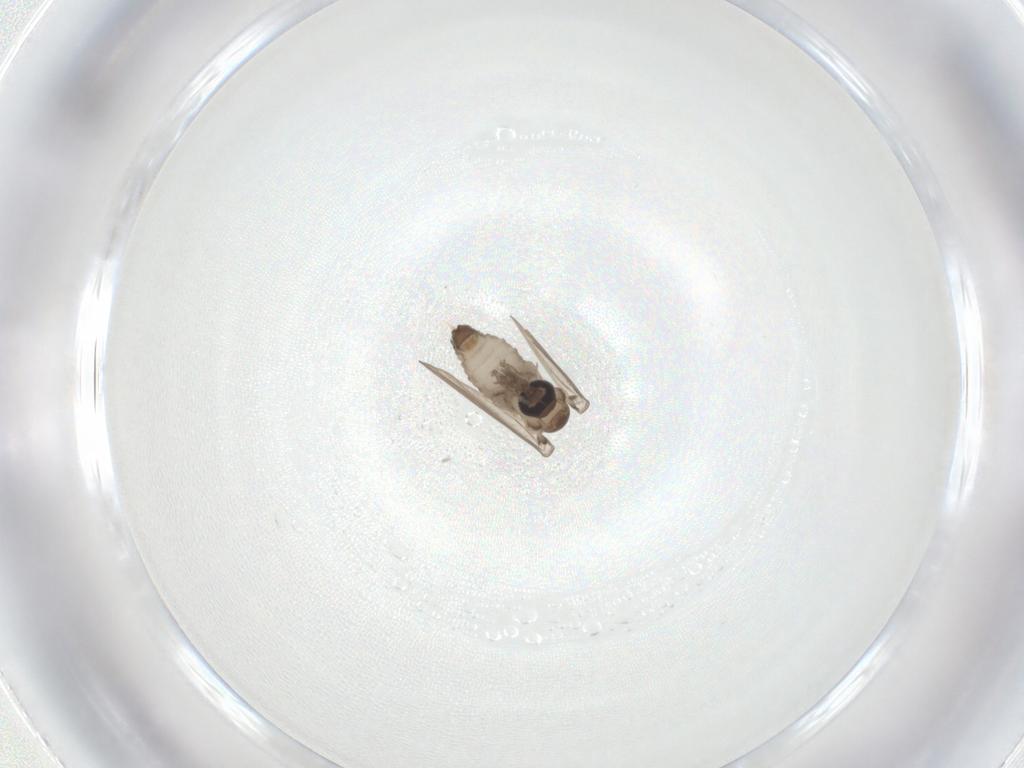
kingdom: Animalia
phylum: Arthropoda
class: Insecta
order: Diptera
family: Psychodidae
